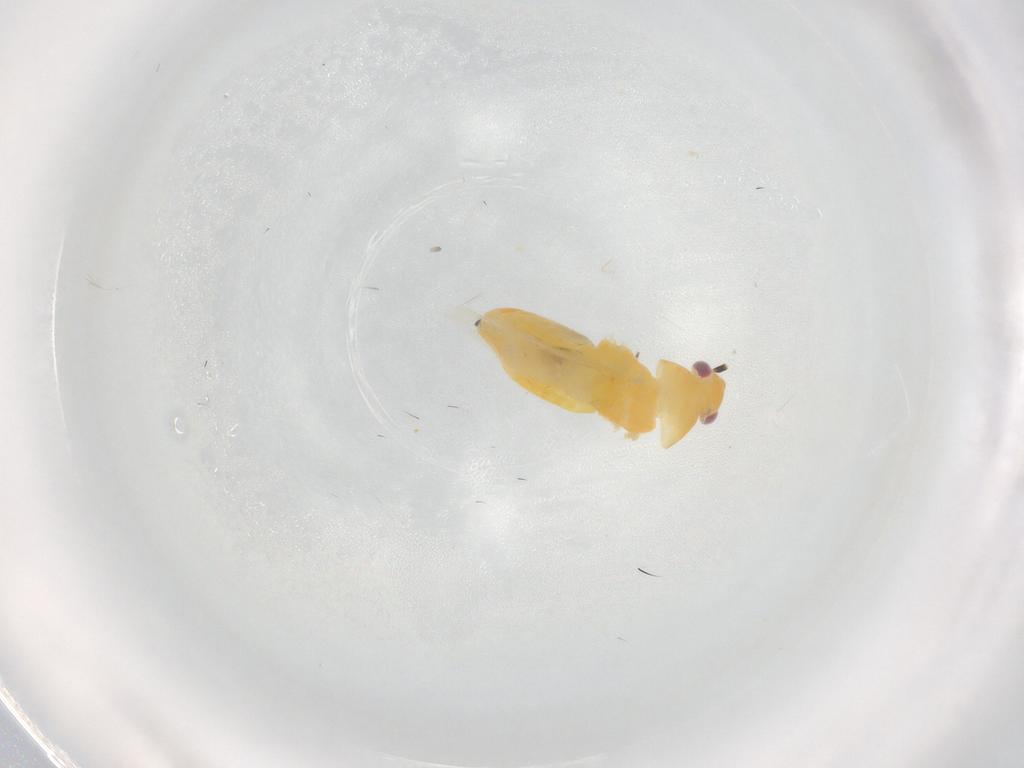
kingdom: Animalia
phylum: Arthropoda
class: Insecta
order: Hemiptera
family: Miridae
